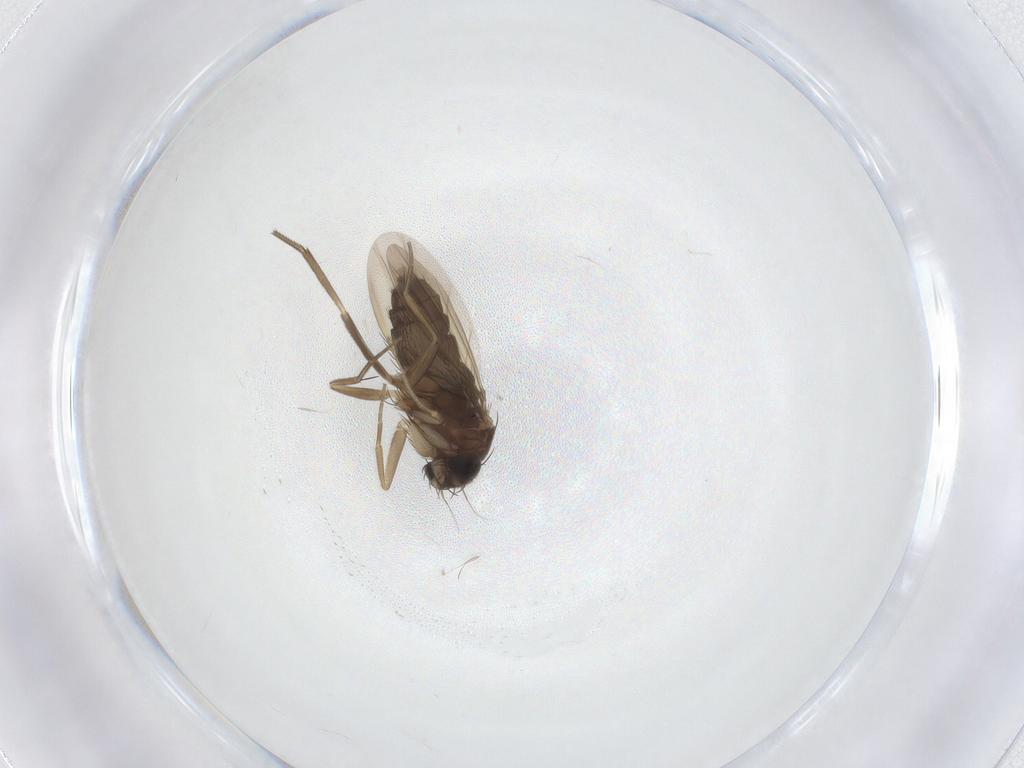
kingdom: Animalia
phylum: Arthropoda
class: Insecta
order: Diptera
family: Phoridae
